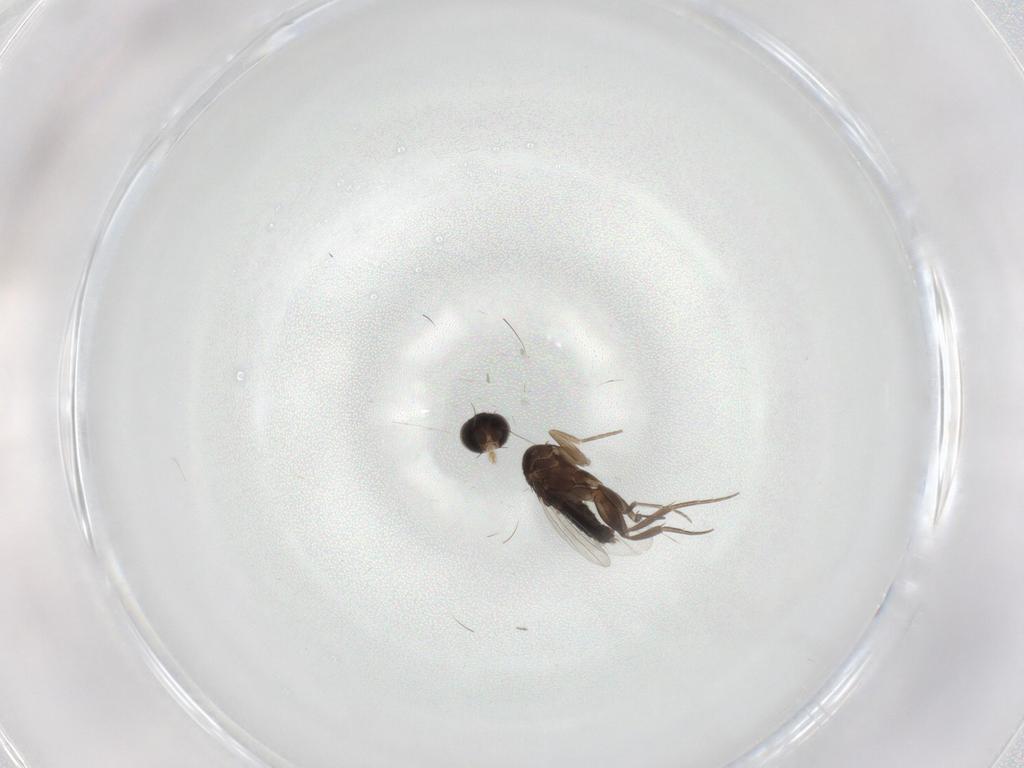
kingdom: Animalia
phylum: Arthropoda
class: Insecta
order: Diptera
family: Phoridae
